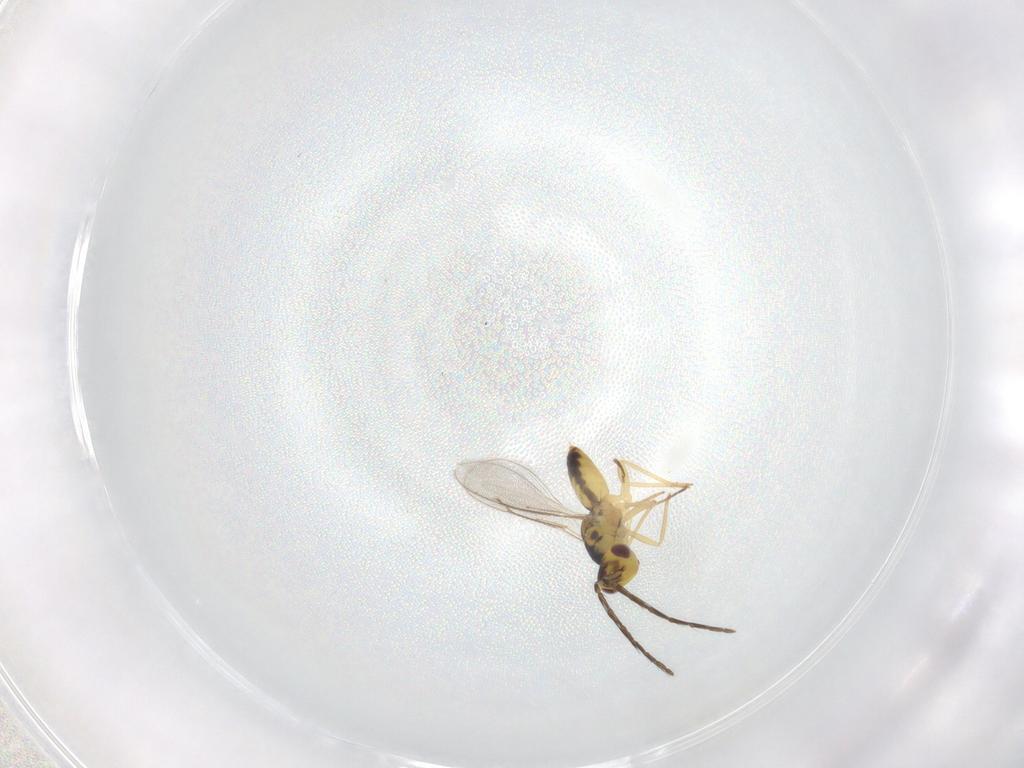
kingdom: Animalia
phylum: Arthropoda
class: Insecta
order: Hymenoptera
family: Eulophidae
